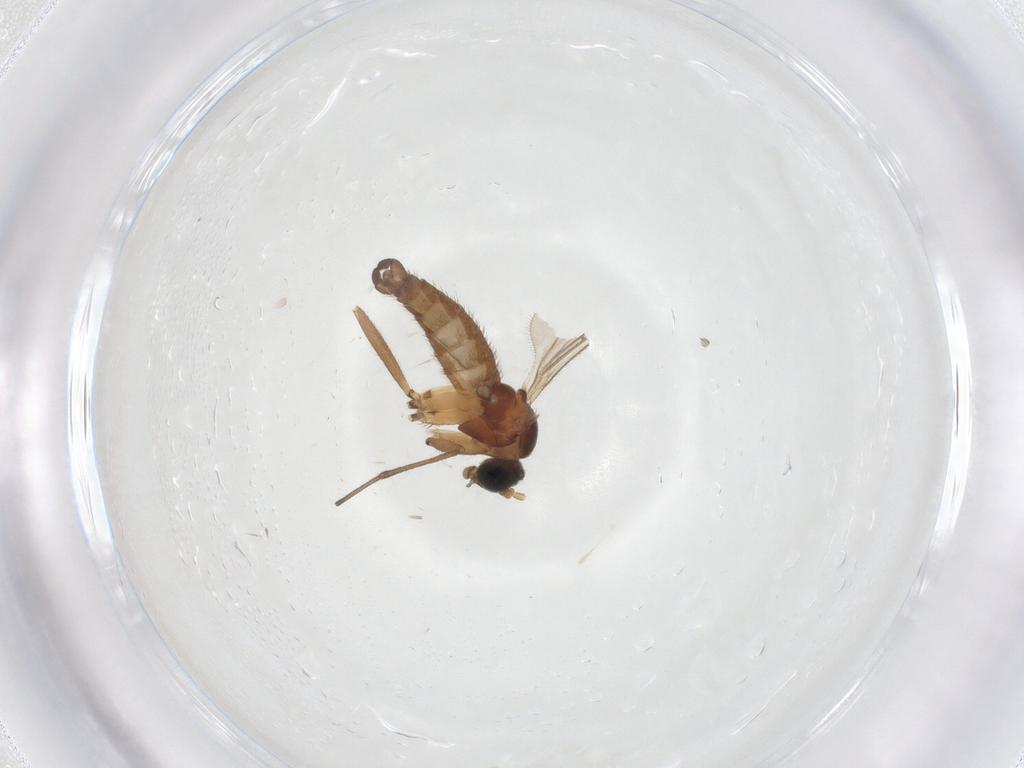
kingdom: Animalia
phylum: Arthropoda
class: Insecta
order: Diptera
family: Sciaridae
